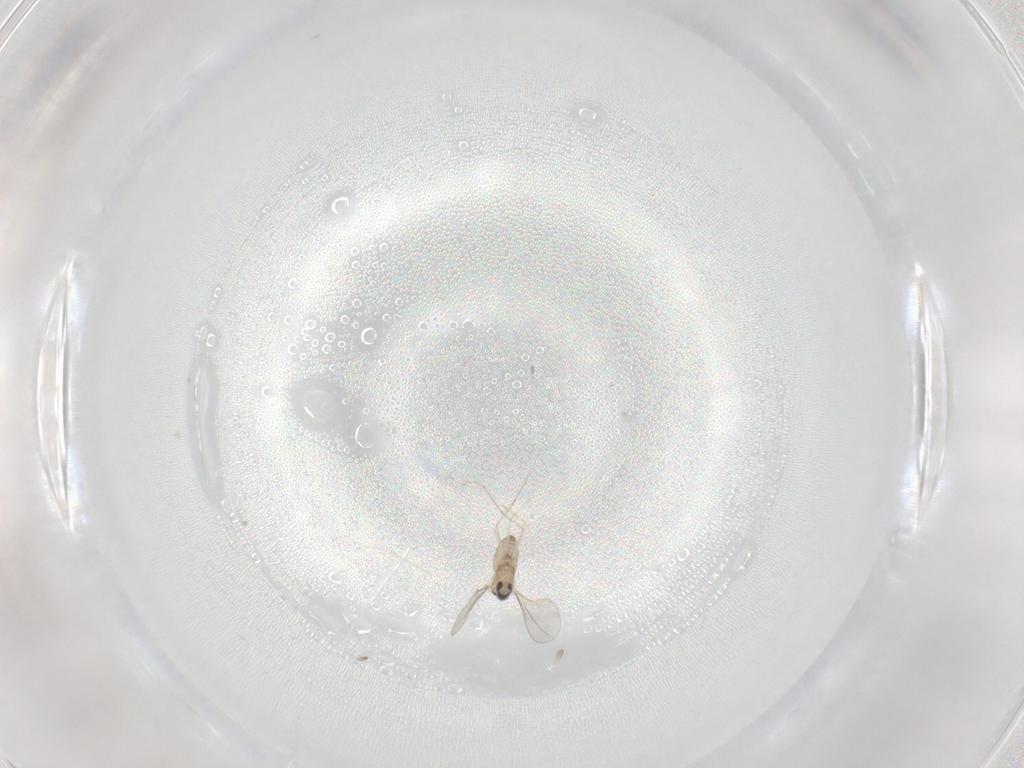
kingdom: Animalia
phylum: Arthropoda
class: Insecta
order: Diptera
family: Cecidomyiidae
